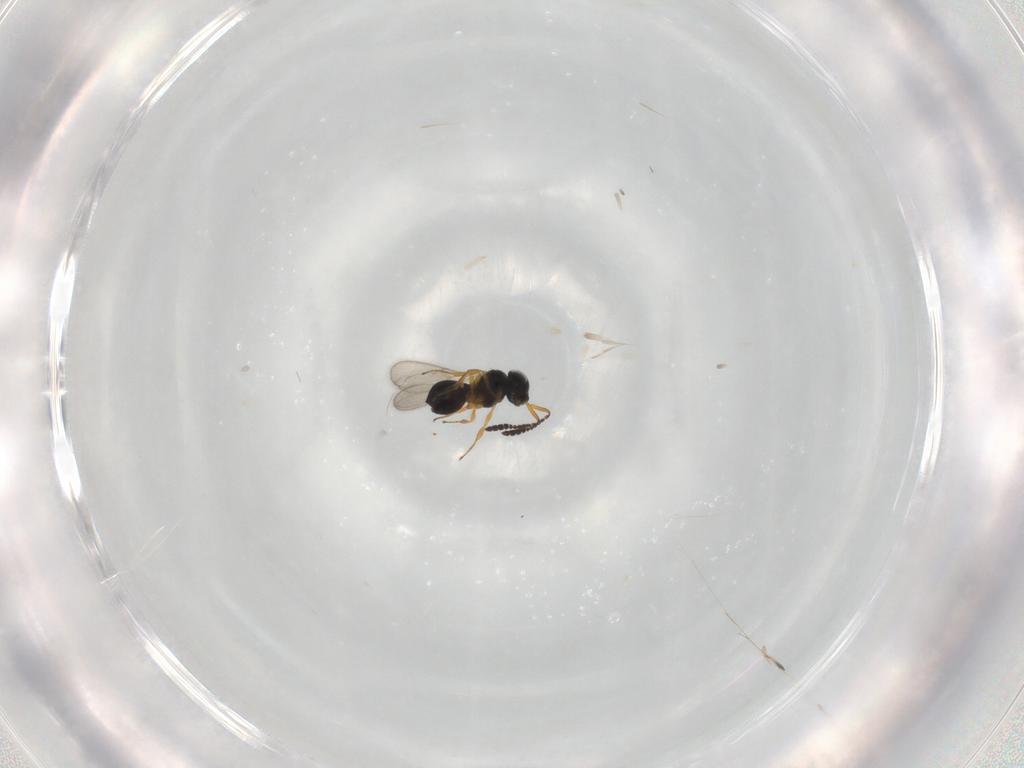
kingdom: Animalia
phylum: Arthropoda
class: Insecta
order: Hymenoptera
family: Scelionidae
